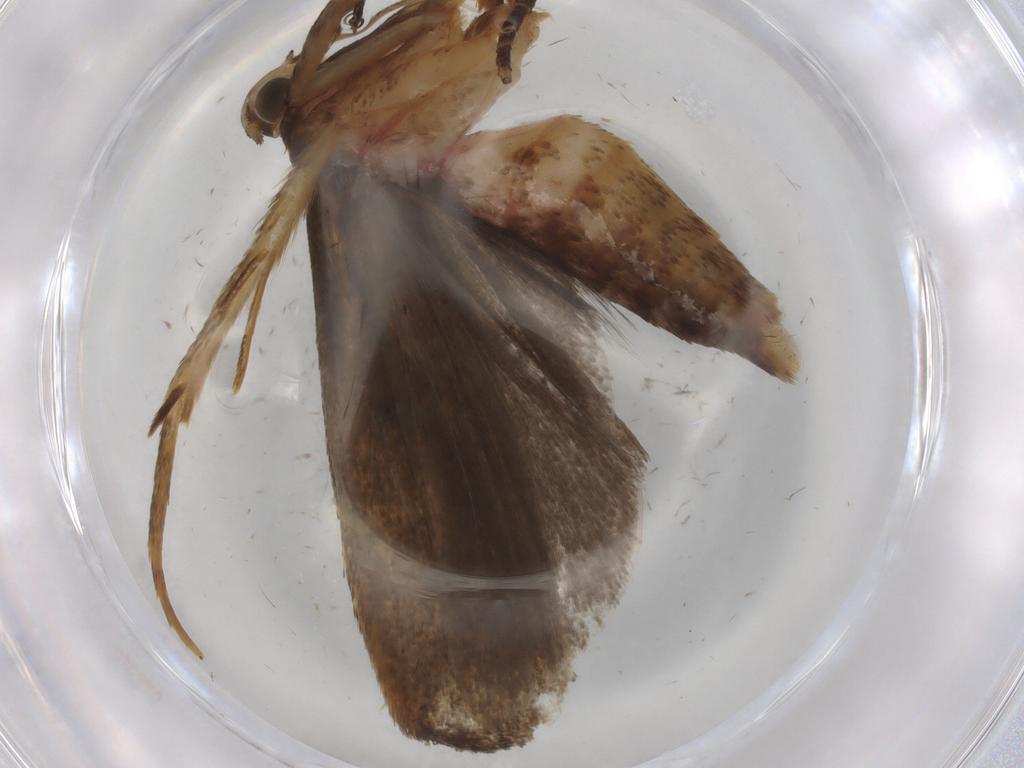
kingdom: Animalia
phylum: Arthropoda
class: Insecta
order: Lepidoptera
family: Autostichidae
